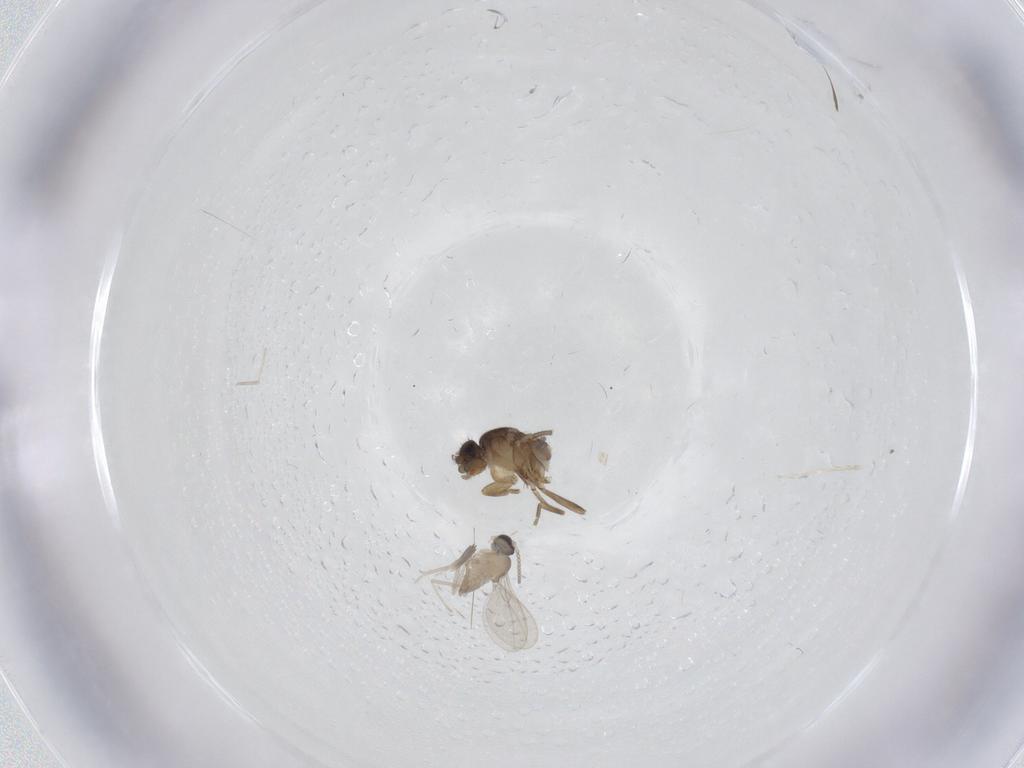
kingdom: Animalia
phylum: Arthropoda
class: Insecta
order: Diptera
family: Cecidomyiidae
